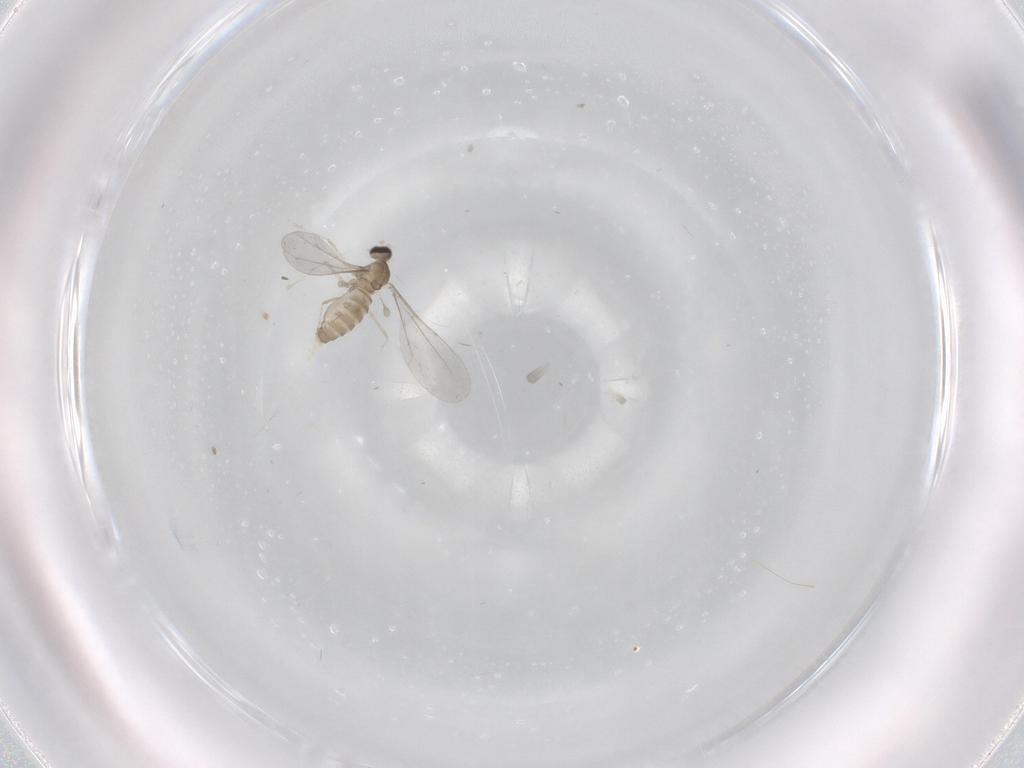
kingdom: Animalia
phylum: Arthropoda
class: Insecta
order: Diptera
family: Cecidomyiidae
